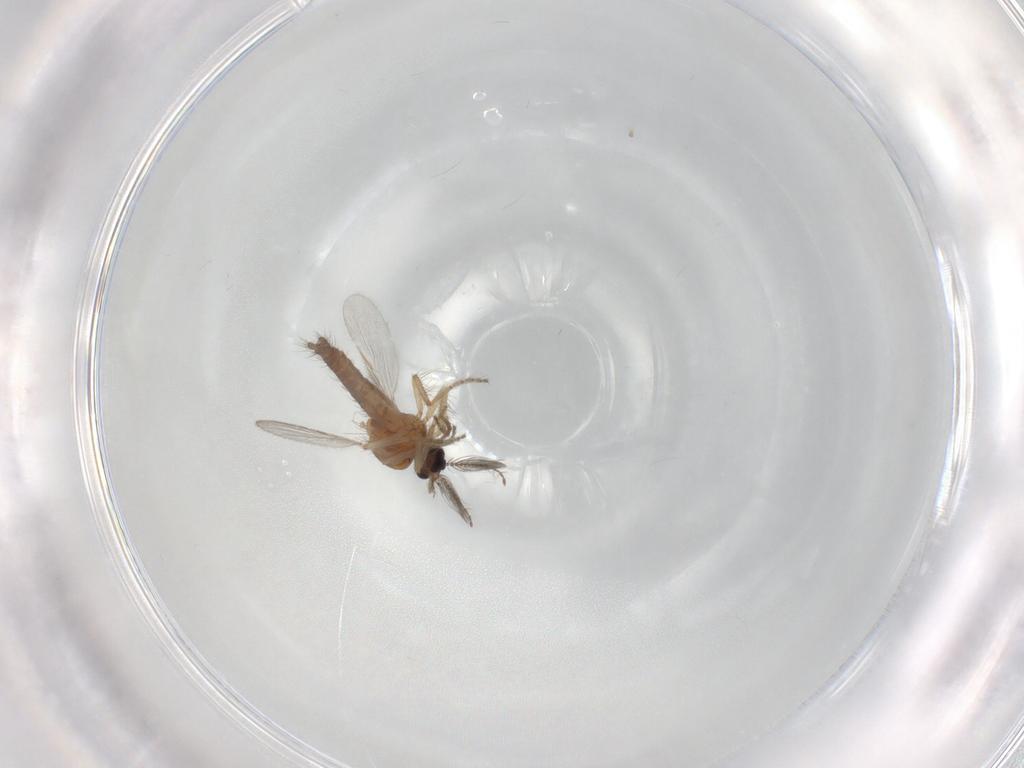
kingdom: Animalia
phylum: Arthropoda
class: Insecta
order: Diptera
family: Ceratopogonidae
